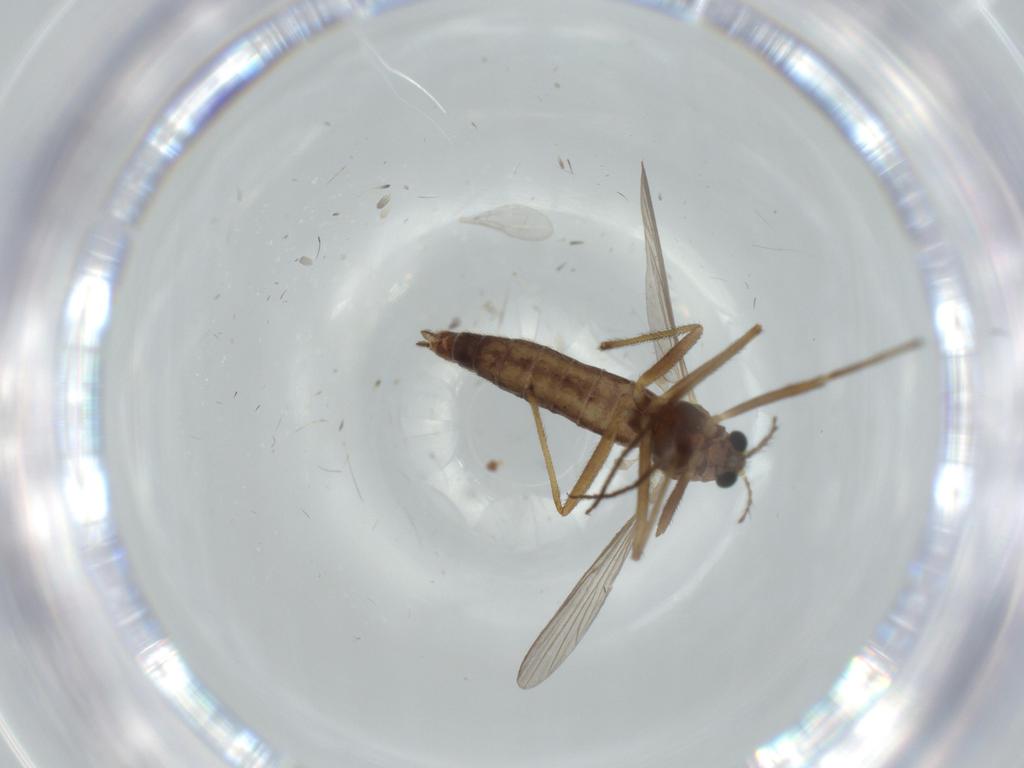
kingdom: Animalia
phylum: Arthropoda
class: Insecta
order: Diptera
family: Chironomidae
